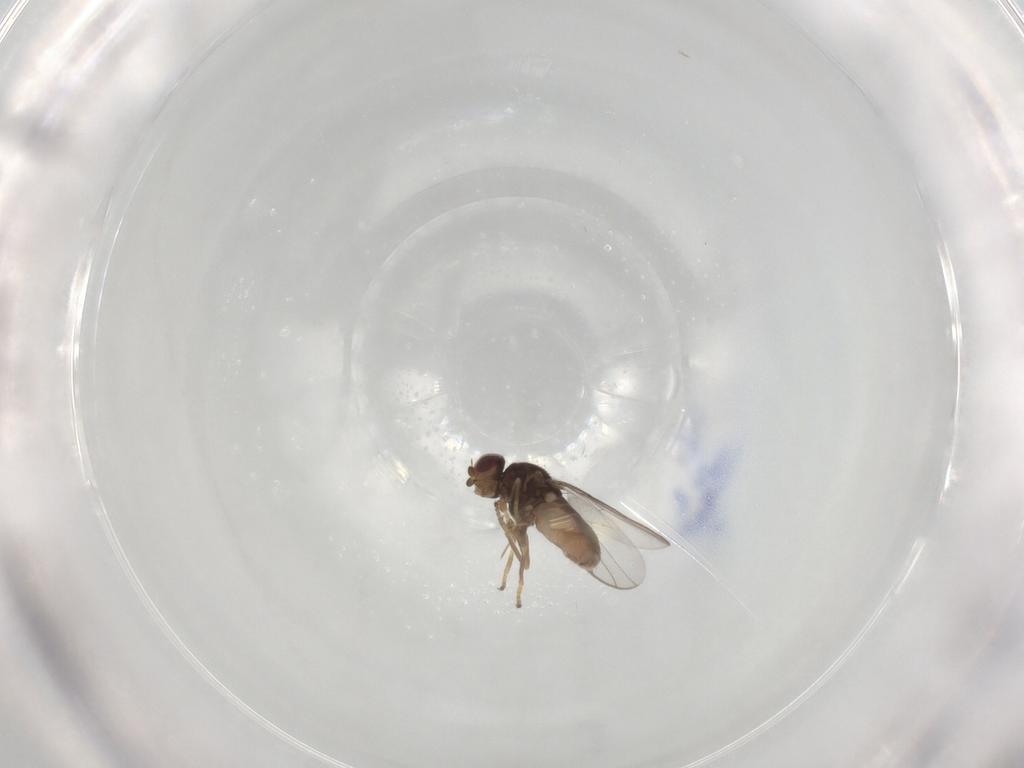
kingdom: Animalia
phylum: Arthropoda
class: Insecta
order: Diptera
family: Chloropidae
